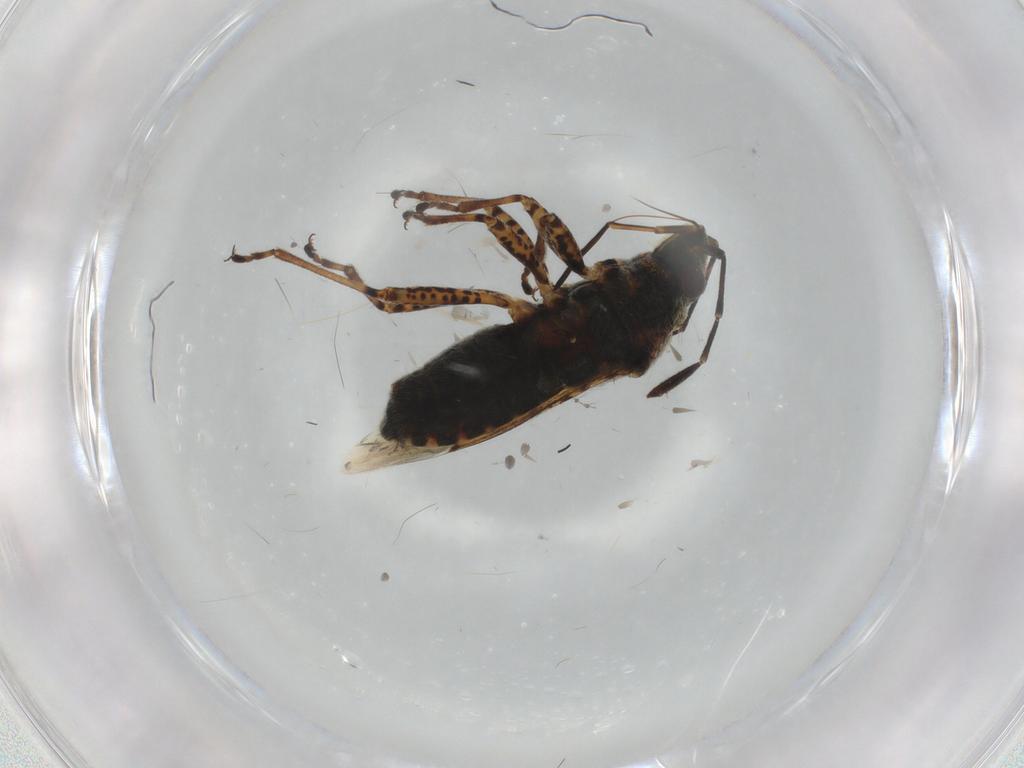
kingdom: Animalia
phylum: Arthropoda
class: Insecta
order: Hemiptera
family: Lygaeidae
